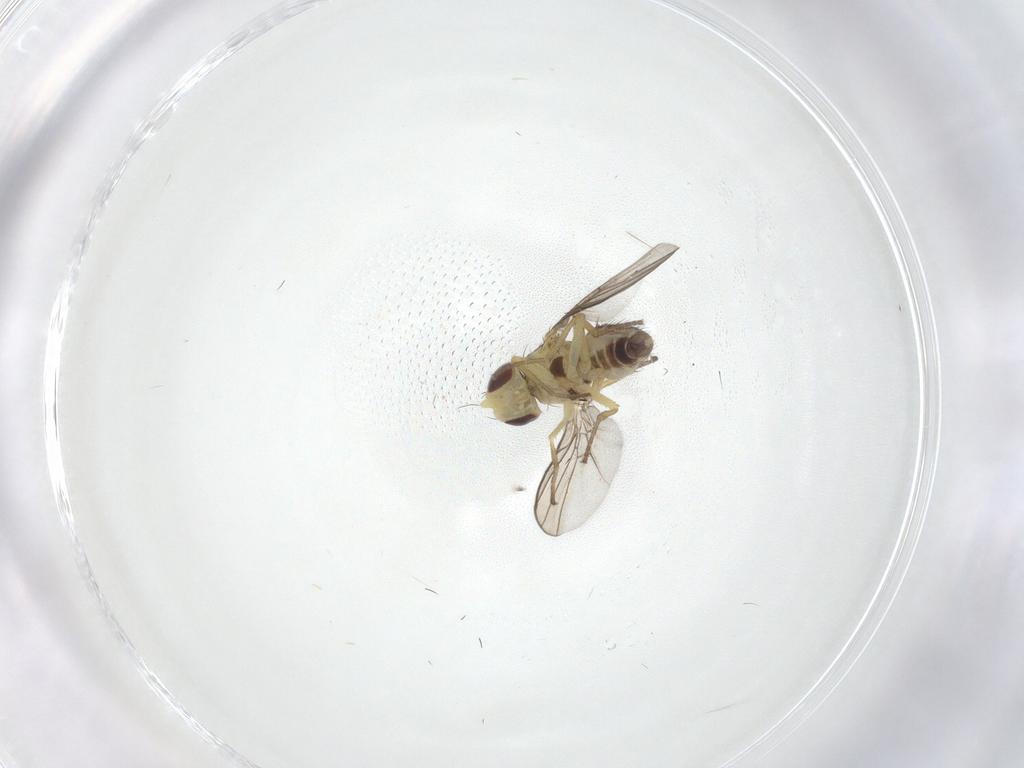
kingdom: Animalia
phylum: Arthropoda
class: Insecta
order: Diptera
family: Agromyzidae
